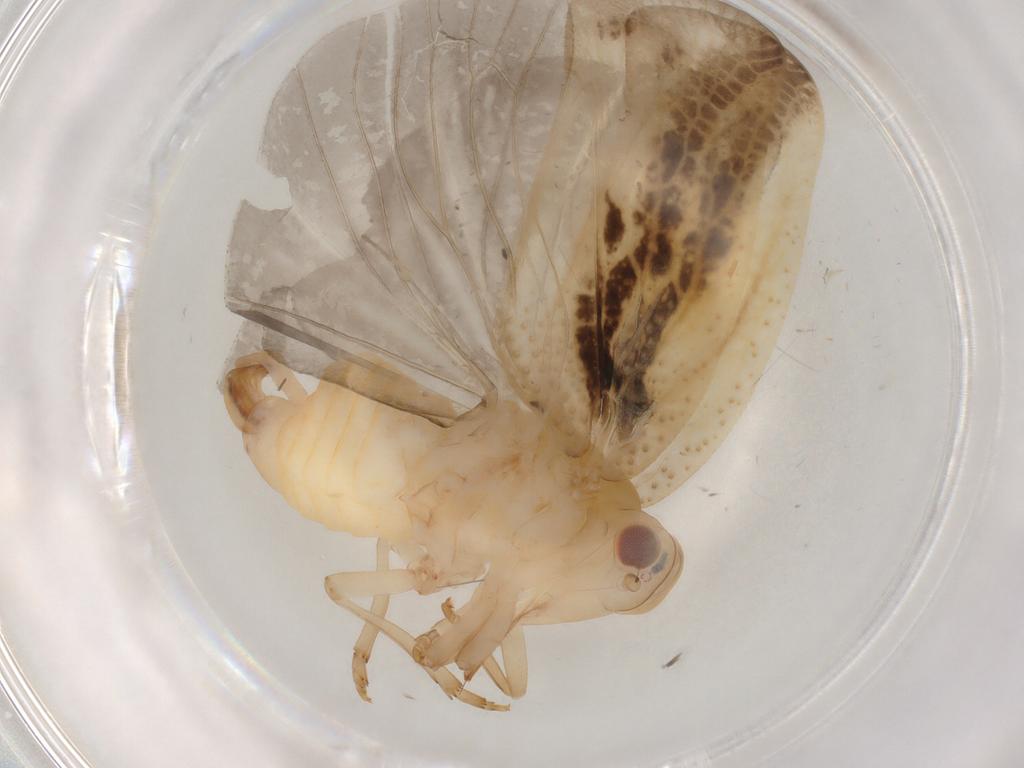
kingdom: Animalia
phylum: Arthropoda
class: Insecta
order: Hemiptera
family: Flatidae
